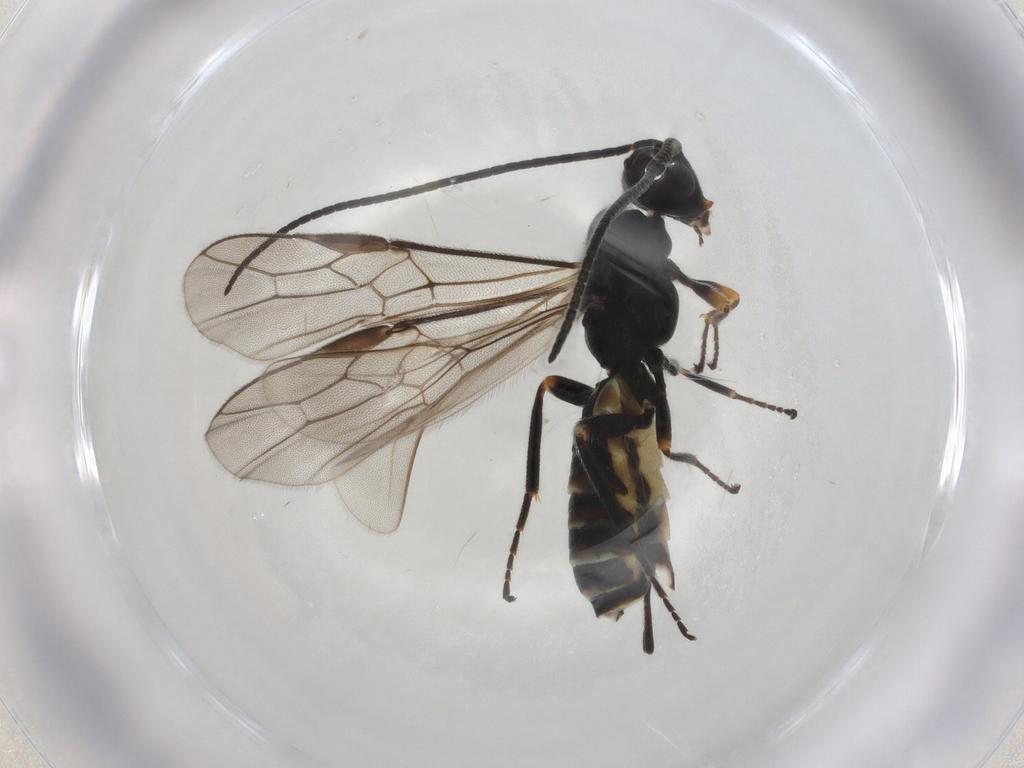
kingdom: Animalia
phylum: Arthropoda
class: Insecta
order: Hymenoptera
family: Braconidae
